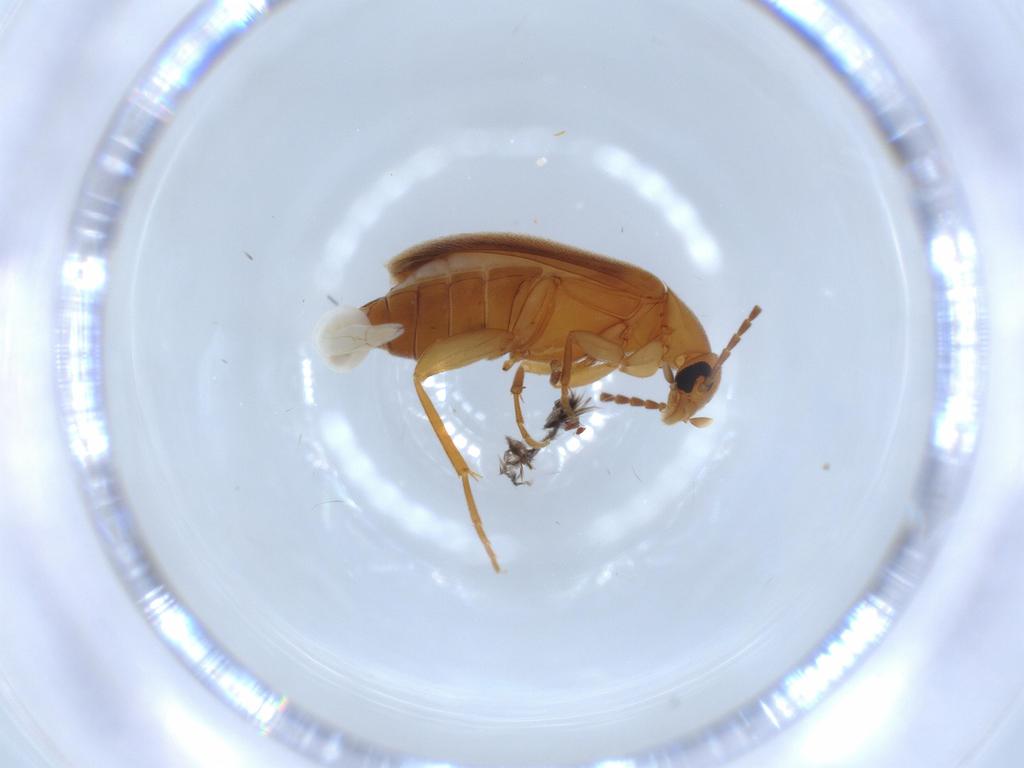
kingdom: Animalia
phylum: Arthropoda
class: Insecta
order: Coleoptera
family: Scraptiidae
